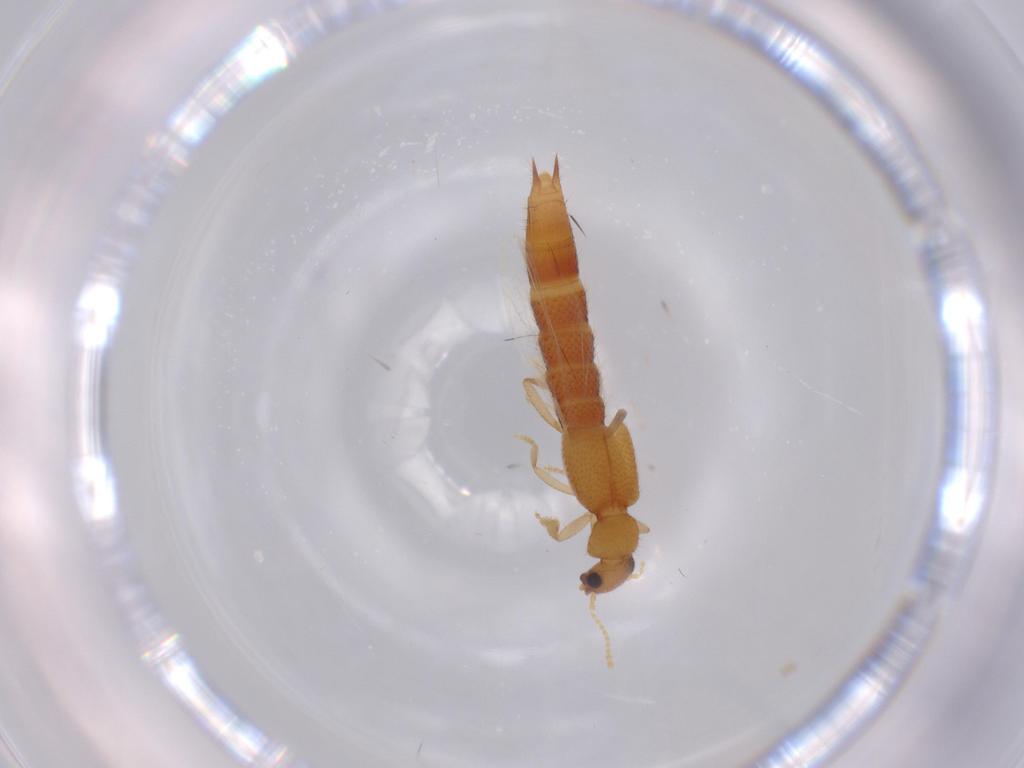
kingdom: Animalia
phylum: Arthropoda
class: Insecta
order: Coleoptera
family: Staphylinidae
